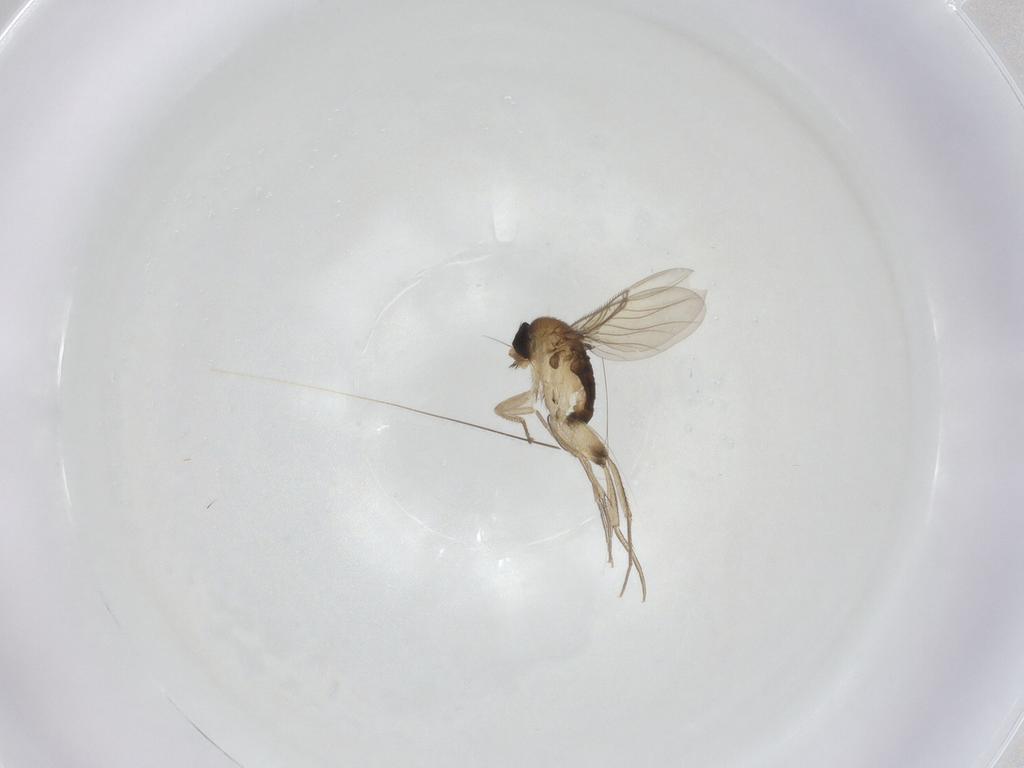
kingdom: Animalia
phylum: Arthropoda
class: Insecta
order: Diptera
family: Phoridae
